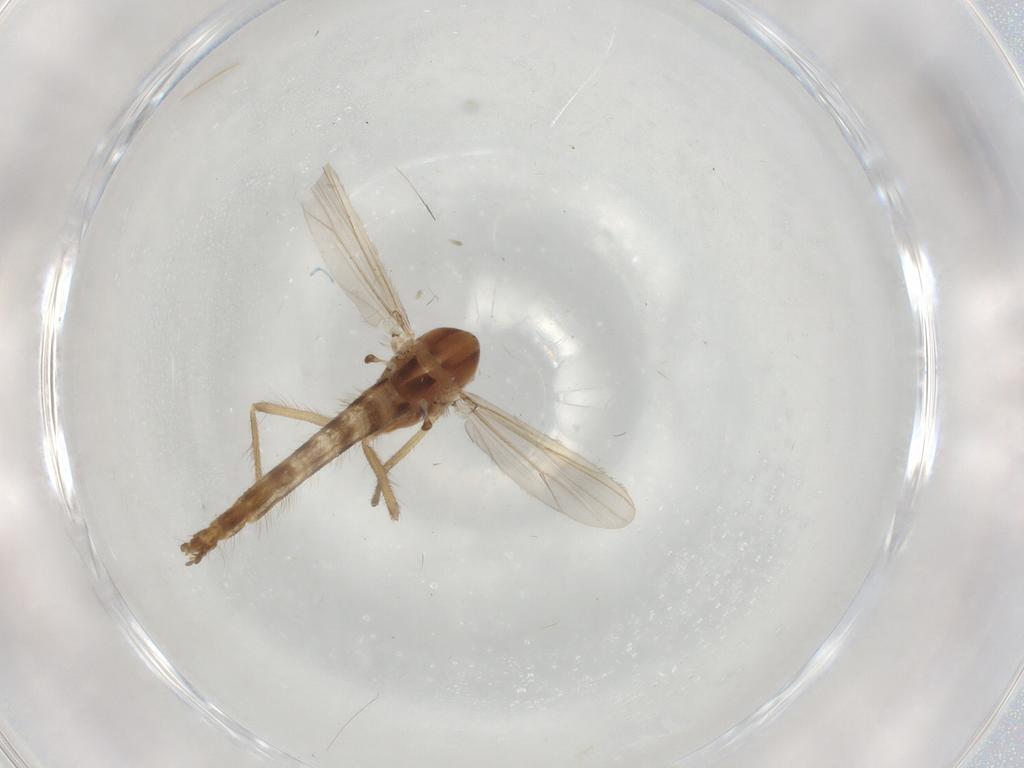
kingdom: Animalia
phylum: Arthropoda
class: Insecta
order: Diptera
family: Chironomidae
